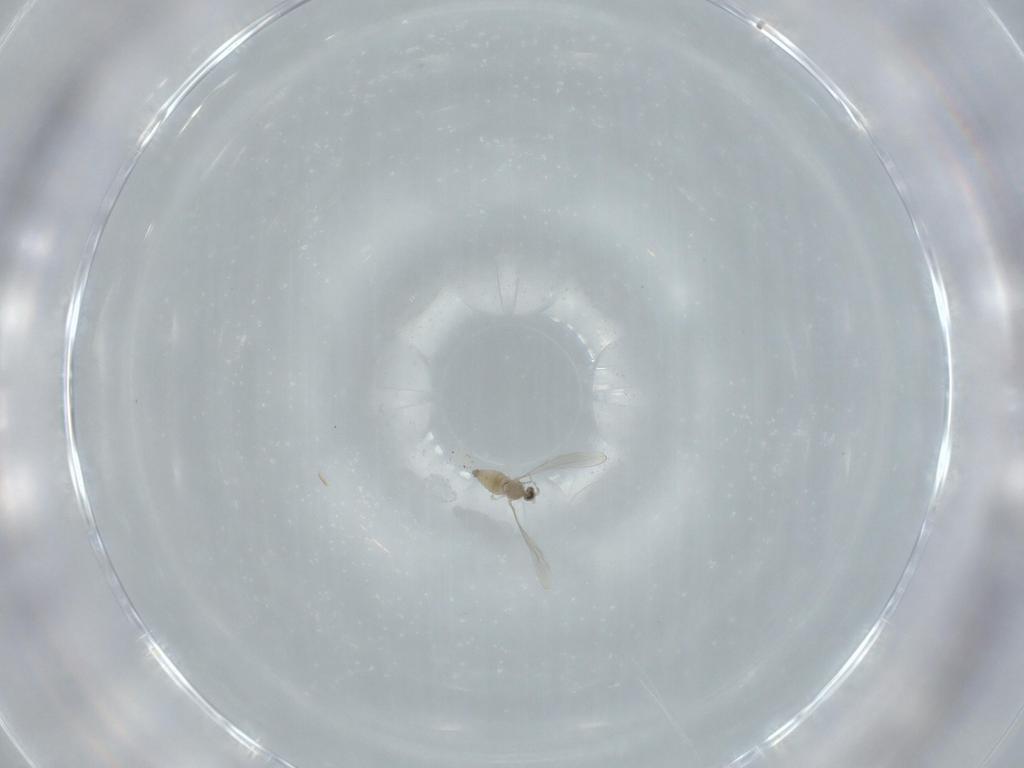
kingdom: Animalia
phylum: Arthropoda
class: Insecta
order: Diptera
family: Cecidomyiidae
